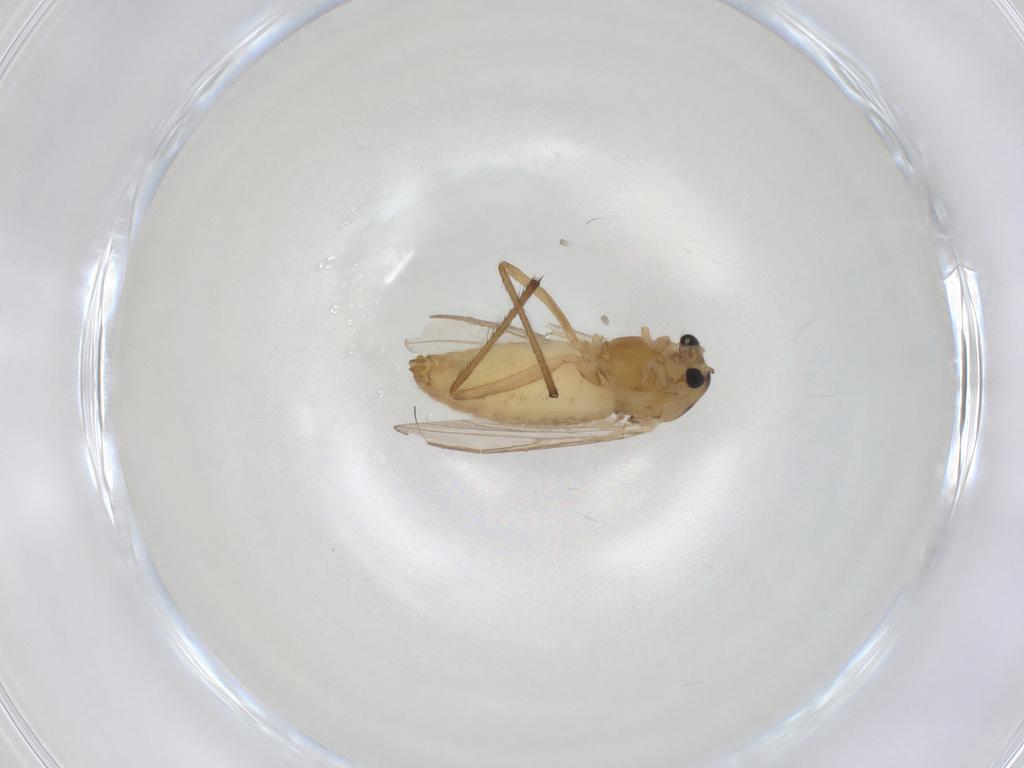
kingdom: Animalia
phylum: Arthropoda
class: Insecta
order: Diptera
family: Chironomidae
